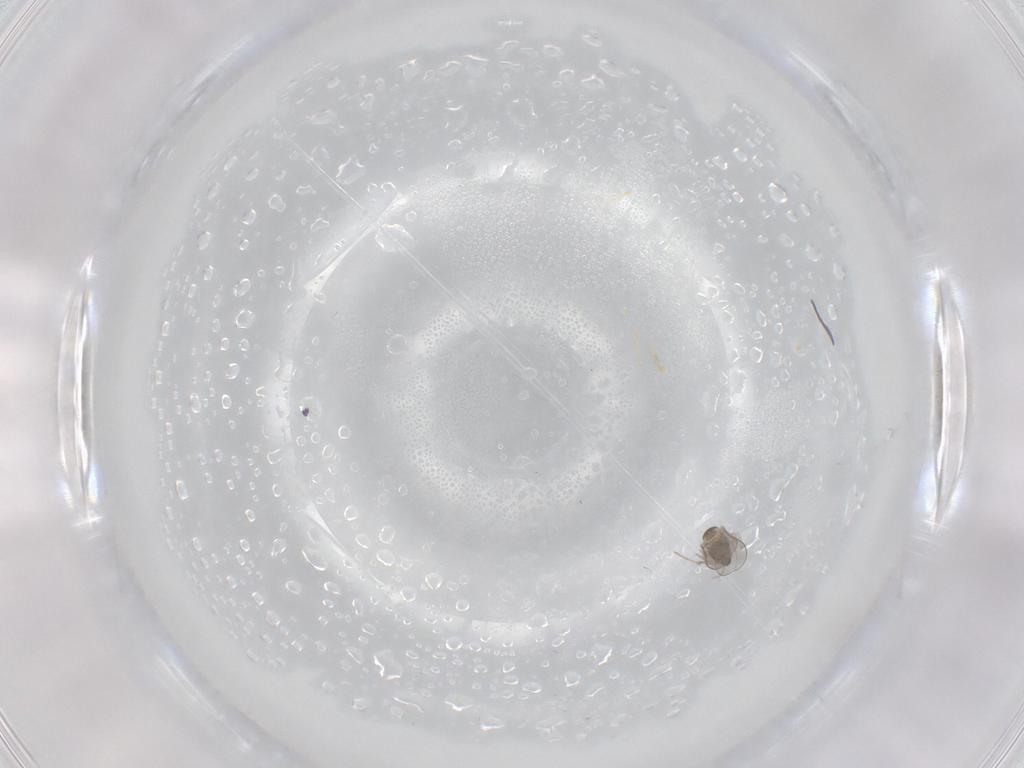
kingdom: Animalia
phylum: Arthropoda
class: Insecta
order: Diptera
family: Cecidomyiidae
